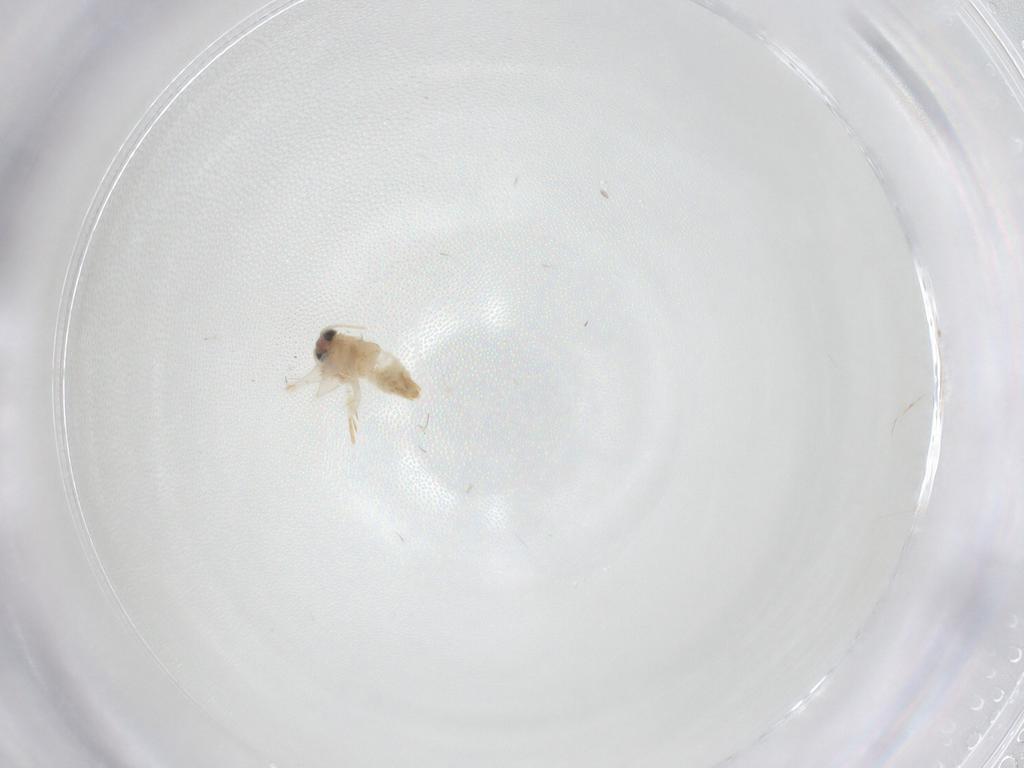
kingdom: Animalia
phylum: Arthropoda
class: Insecta
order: Lepidoptera
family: Crambidae
